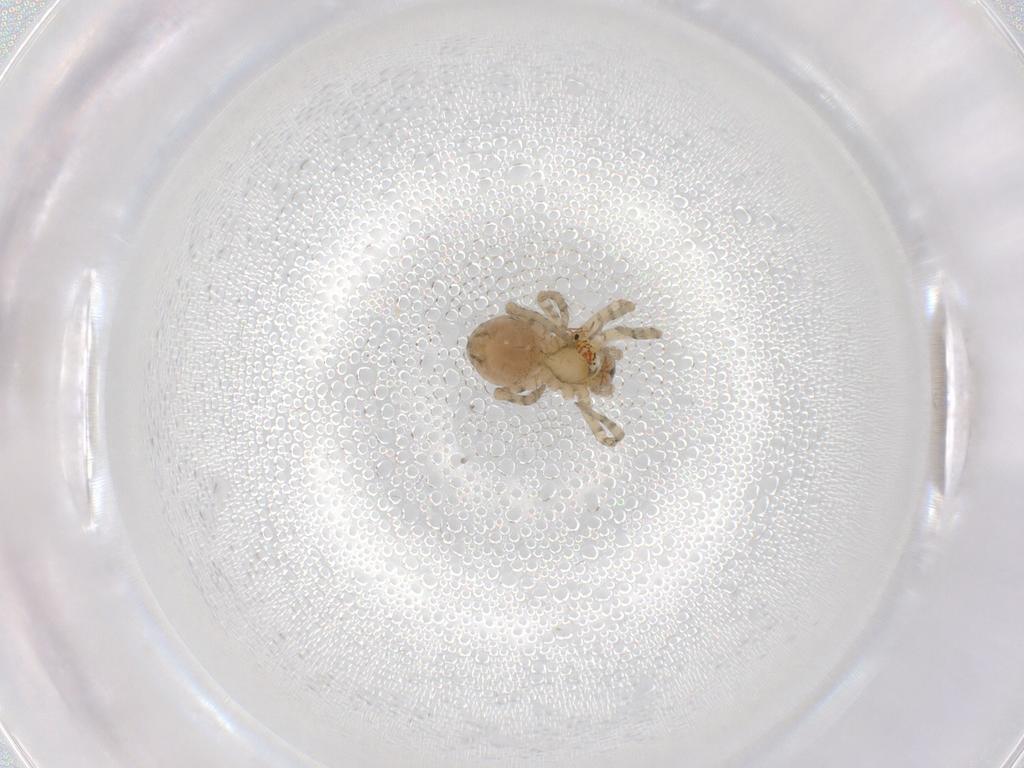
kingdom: Animalia
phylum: Arthropoda
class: Arachnida
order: Araneae
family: Amaurobiidae
